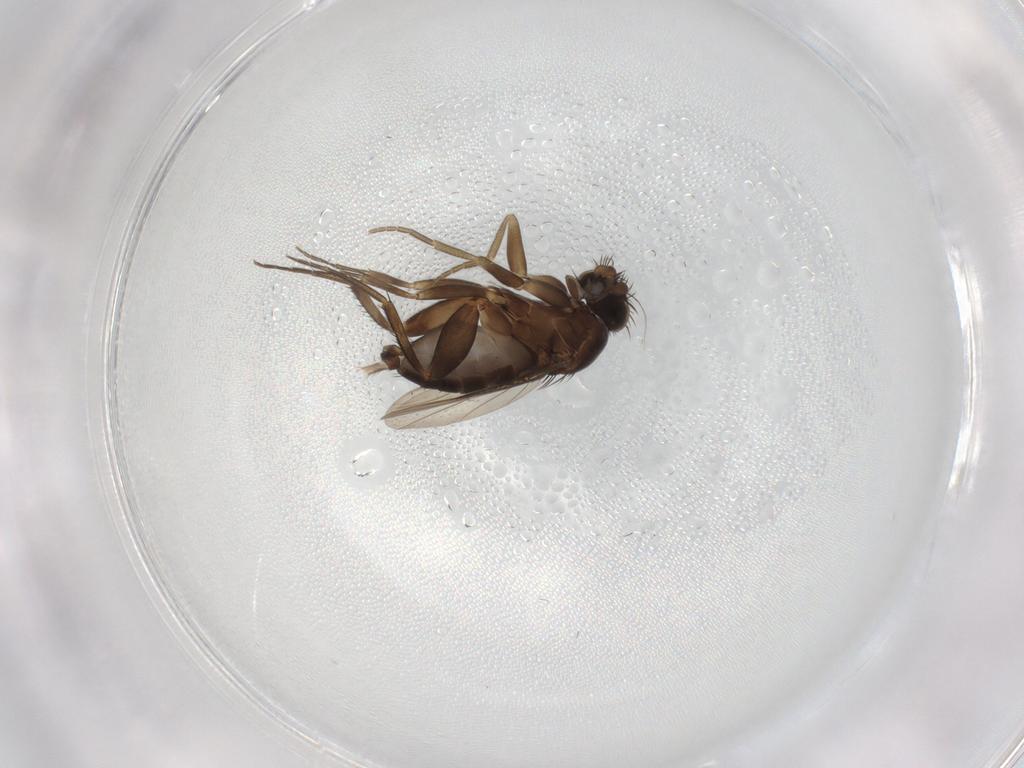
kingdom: Animalia
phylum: Arthropoda
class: Insecta
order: Diptera
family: Phoridae
